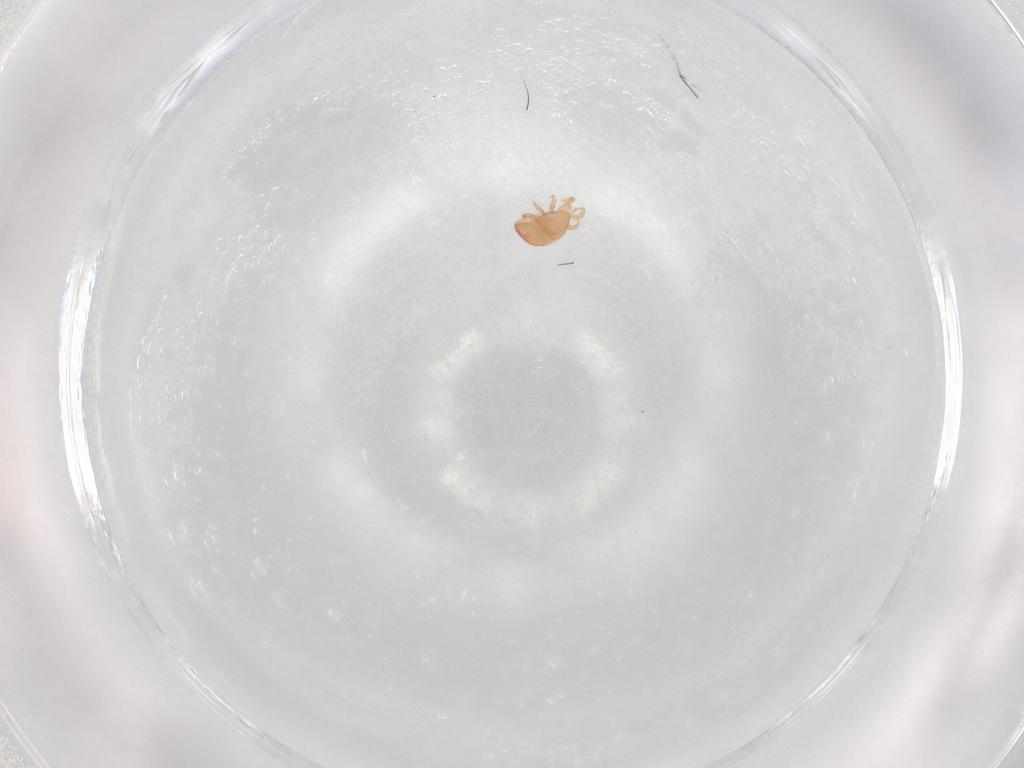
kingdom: Animalia
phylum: Arthropoda
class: Arachnida
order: Mesostigmata
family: Zerconidae
